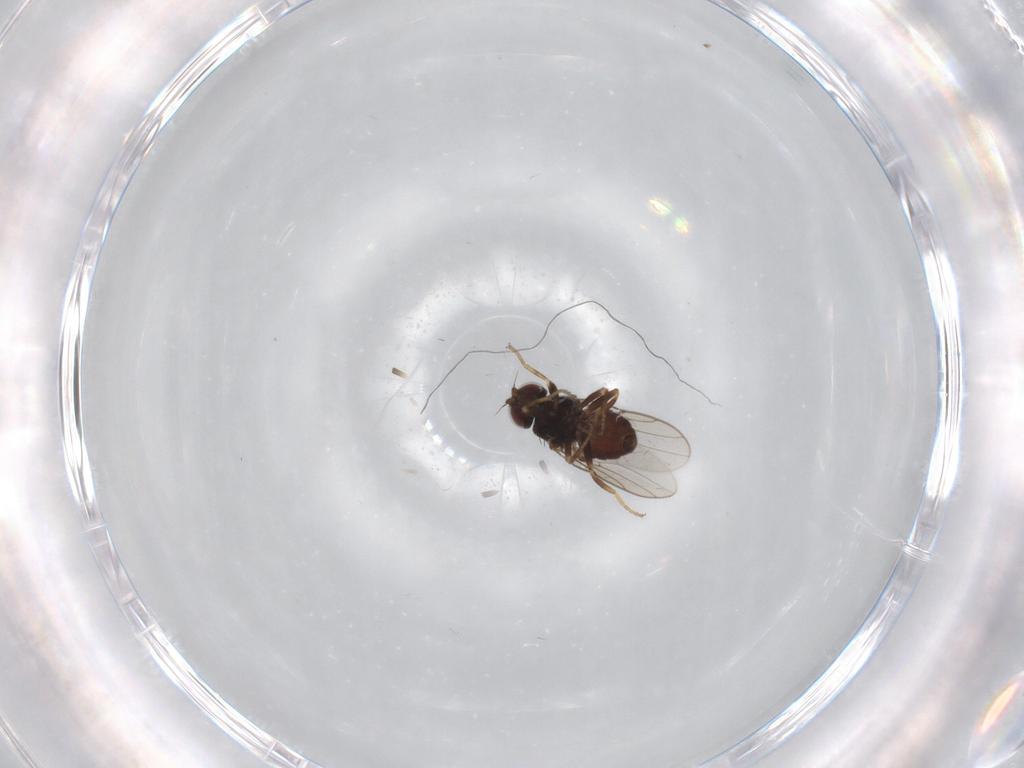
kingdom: Animalia
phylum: Arthropoda
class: Insecta
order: Diptera
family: Chloropidae
